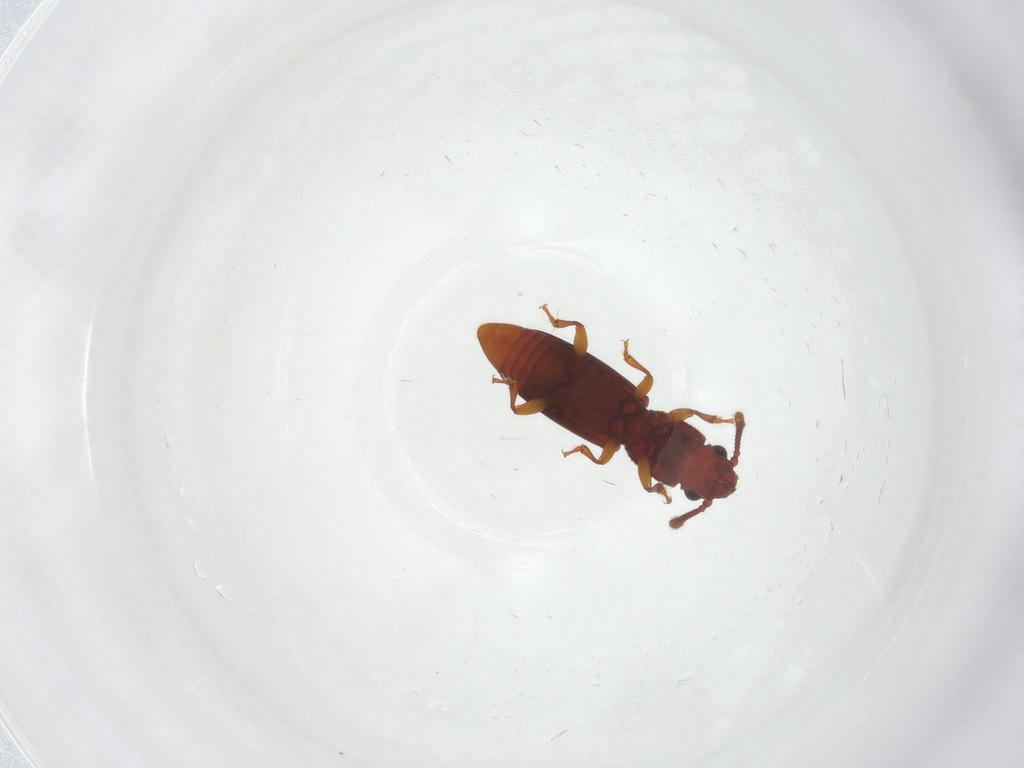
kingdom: Animalia
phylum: Arthropoda
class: Insecta
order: Coleoptera
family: Monotomidae
